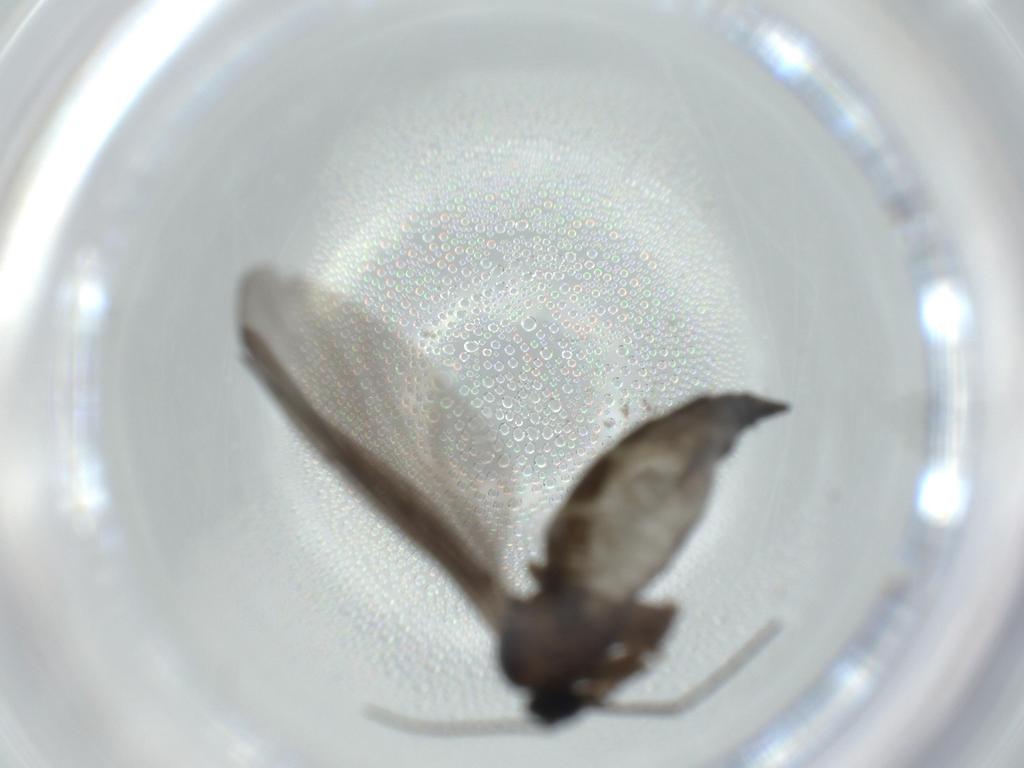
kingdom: Animalia
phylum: Arthropoda
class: Insecta
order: Diptera
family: Sciaridae
